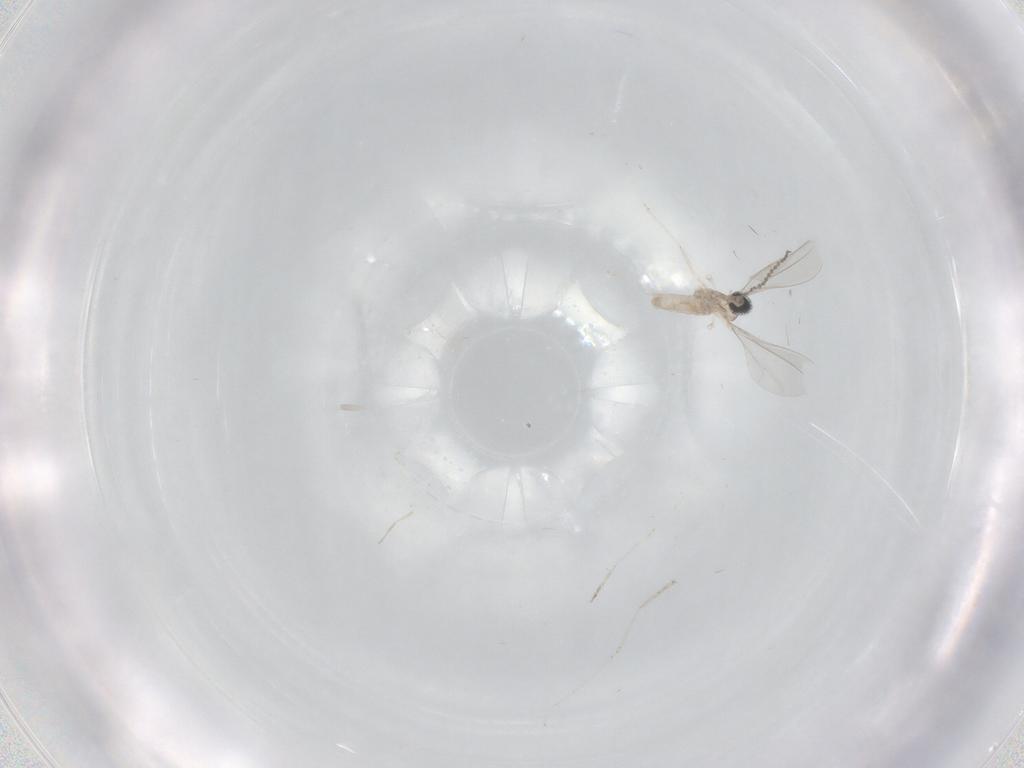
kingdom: Animalia
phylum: Arthropoda
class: Insecta
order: Diptera
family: Cecidomyiidae
